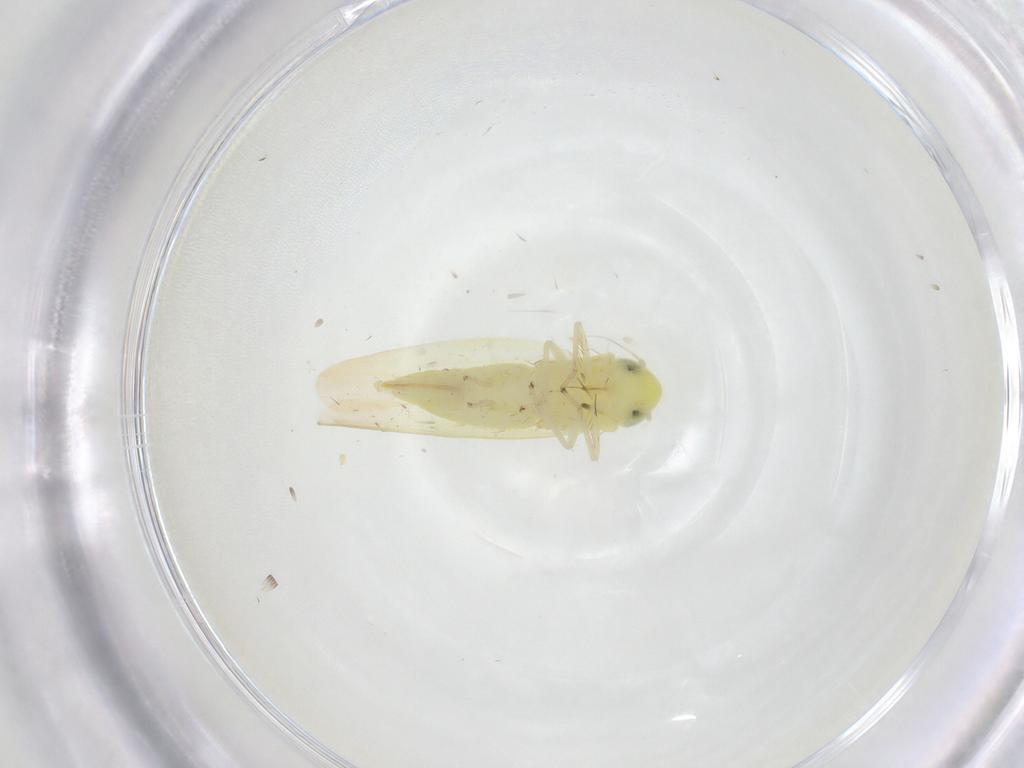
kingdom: Animalia
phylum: Arthropoda
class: Insecta
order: Hemiptera
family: Cicadellidae
